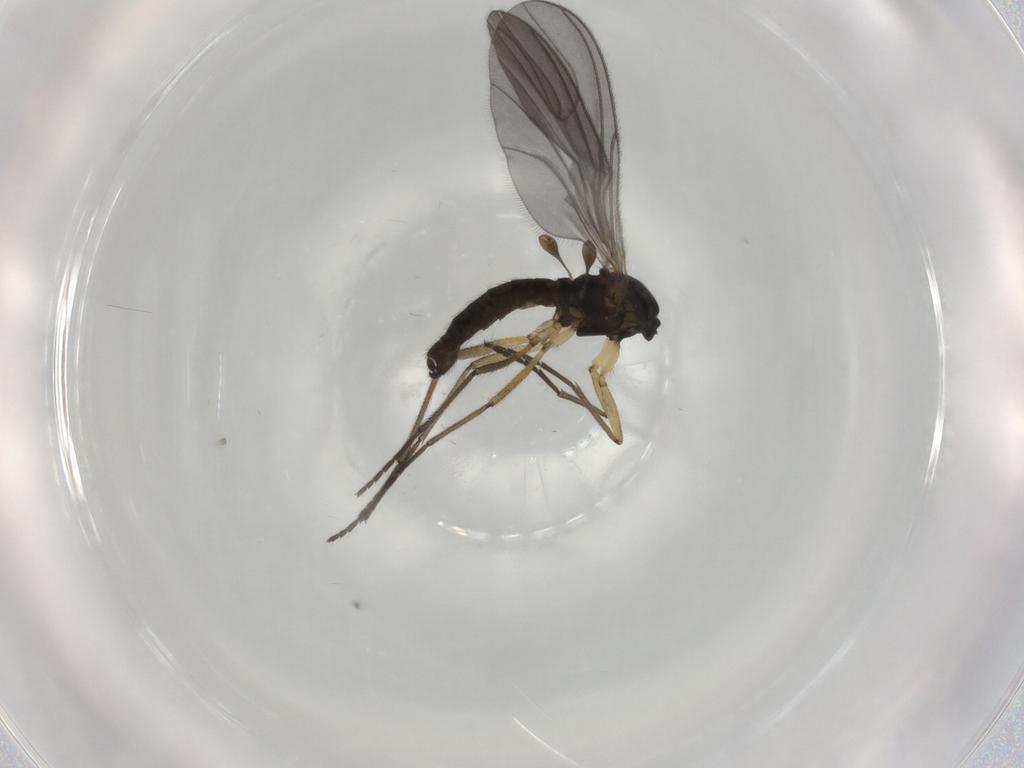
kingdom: Animalia
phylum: Arthropoda
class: Insecta
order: Diptera
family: Sciaridae
